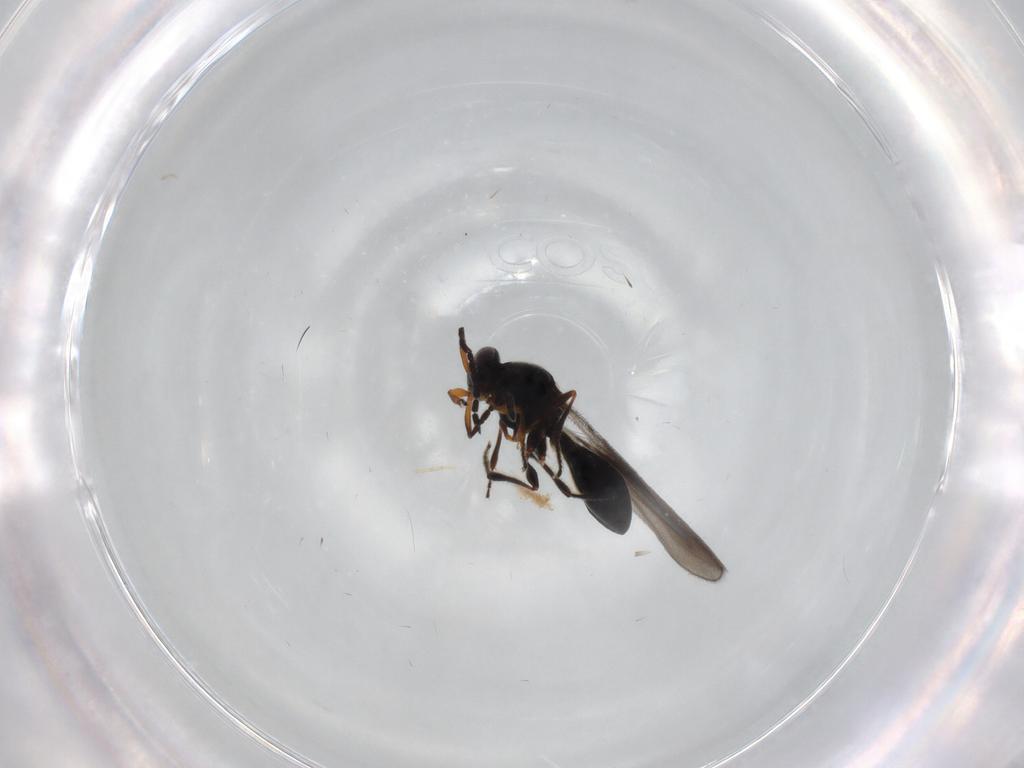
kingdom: Animalia
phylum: Arthropoda
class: Insecta
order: Hymenoptera
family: Platygastridae
